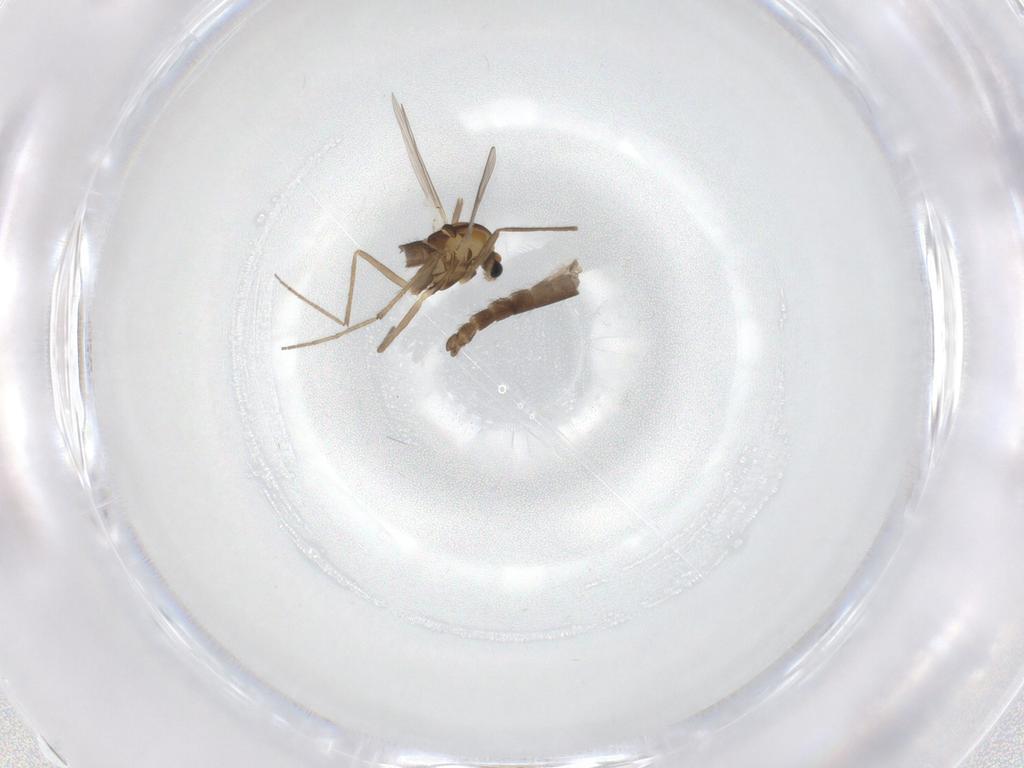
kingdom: Animalia
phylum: Arthropoda
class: Insecta
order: Diptera
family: Chironomidae
